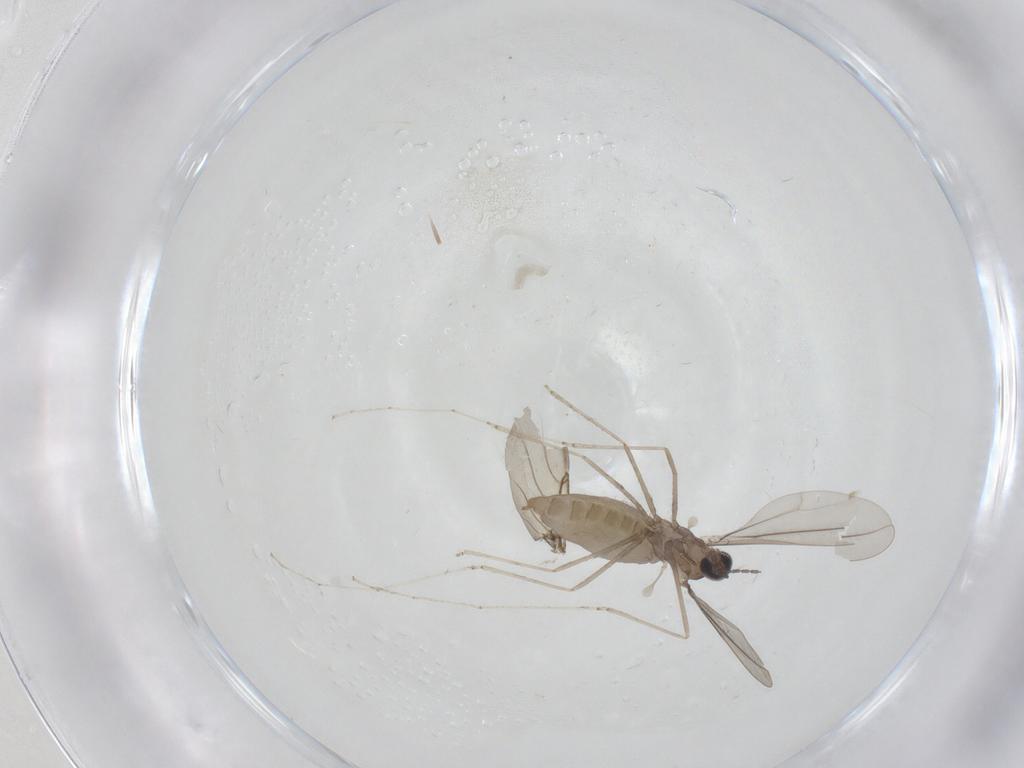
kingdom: Animalia
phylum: Arthropoda
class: Insecta
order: Diptera
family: Cecidomyiidae
